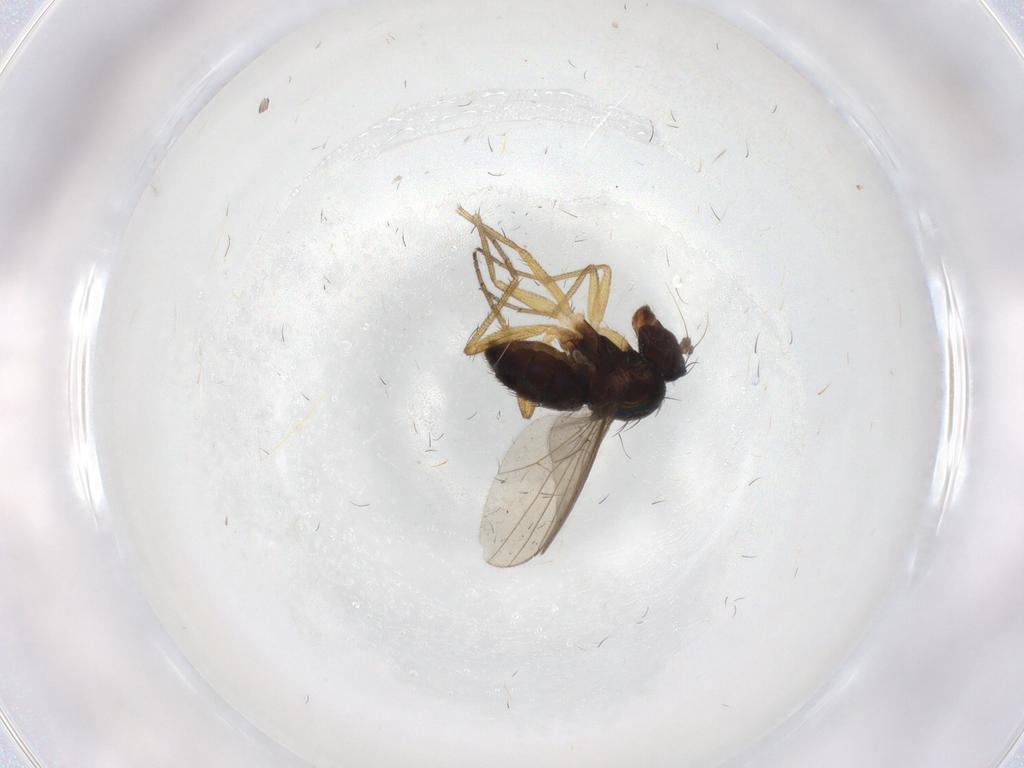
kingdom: Animalia
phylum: Arthropoda
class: Insecta
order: Diptera
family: Dolichopodidae
